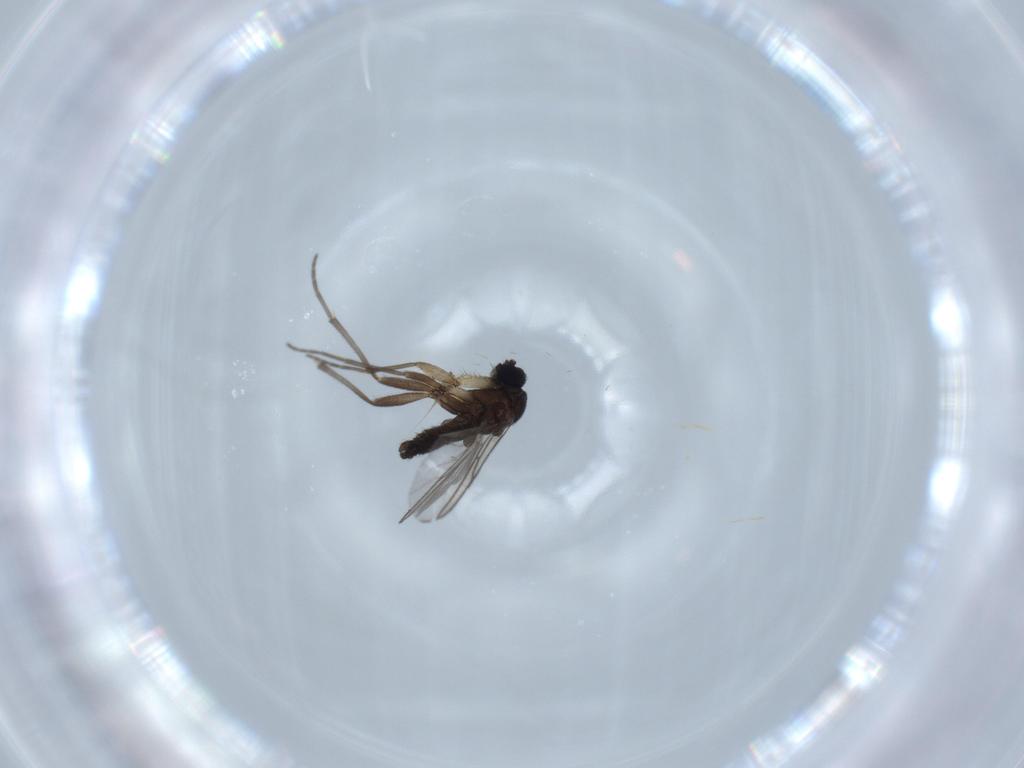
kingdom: Animalia
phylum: Arthropoda
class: Insecta
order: Diptera
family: Sciaridae
